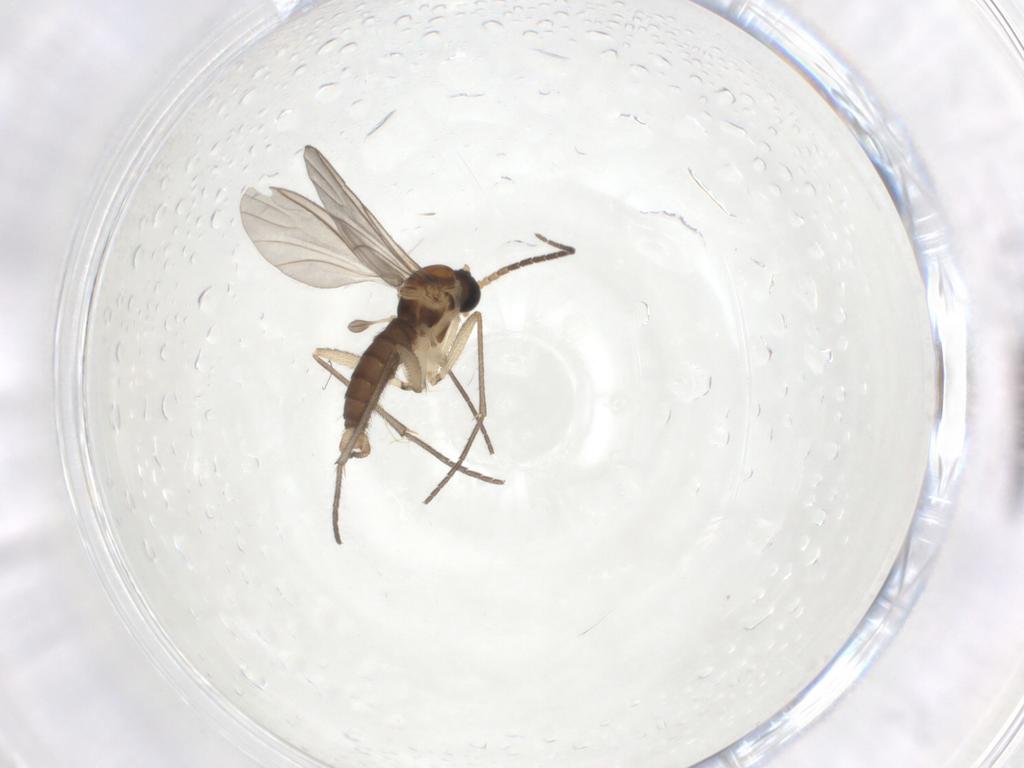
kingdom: Animalia
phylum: Arthropoda
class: Insecta
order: Diptera
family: Sciaridae
